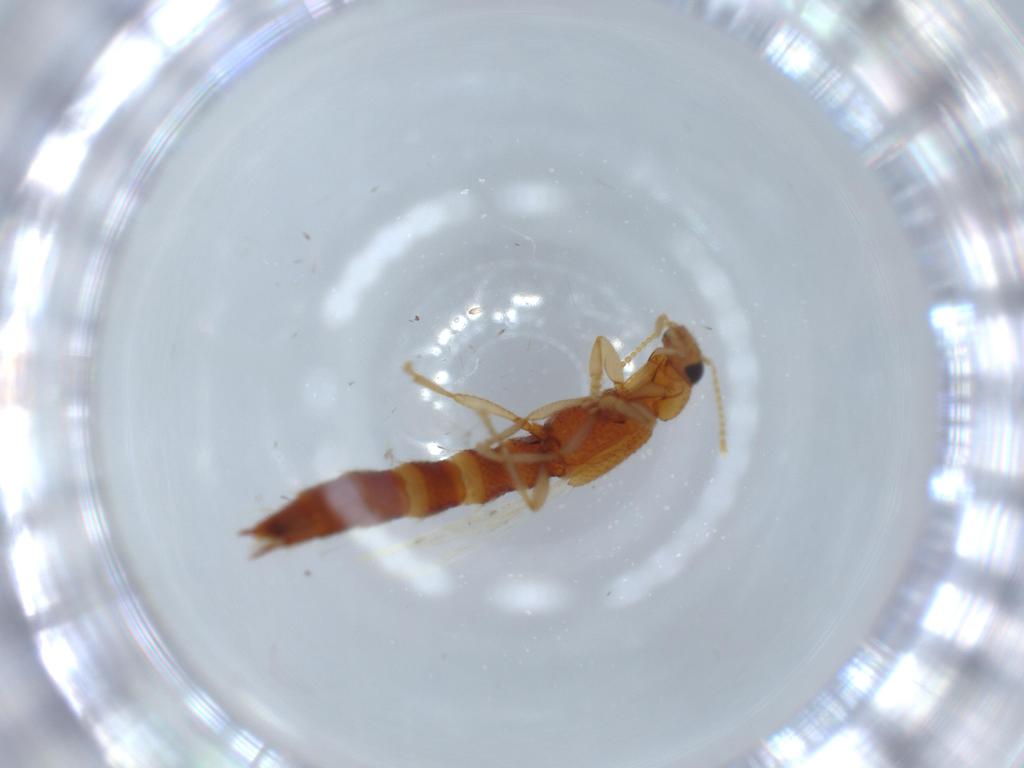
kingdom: Animalia
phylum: Arthropoda
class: Insecta
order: Coleoptera
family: Staphylinidae
